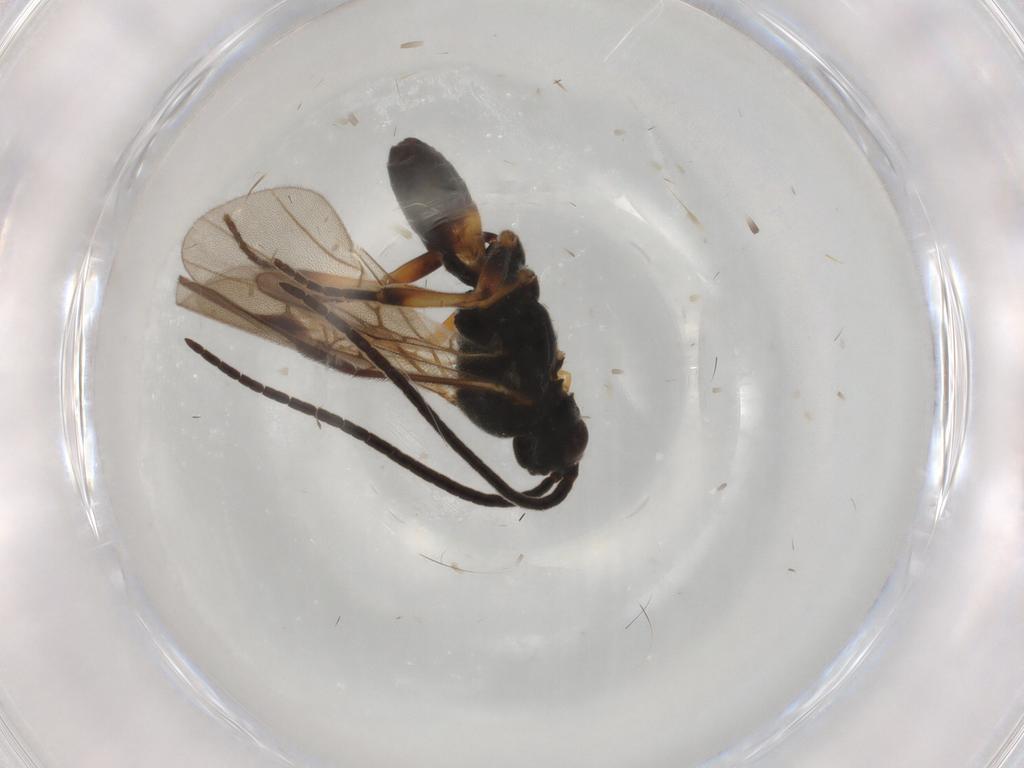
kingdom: Animalia
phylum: Arthropoda
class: Insecta
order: Hymenoptera
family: Braconidae
